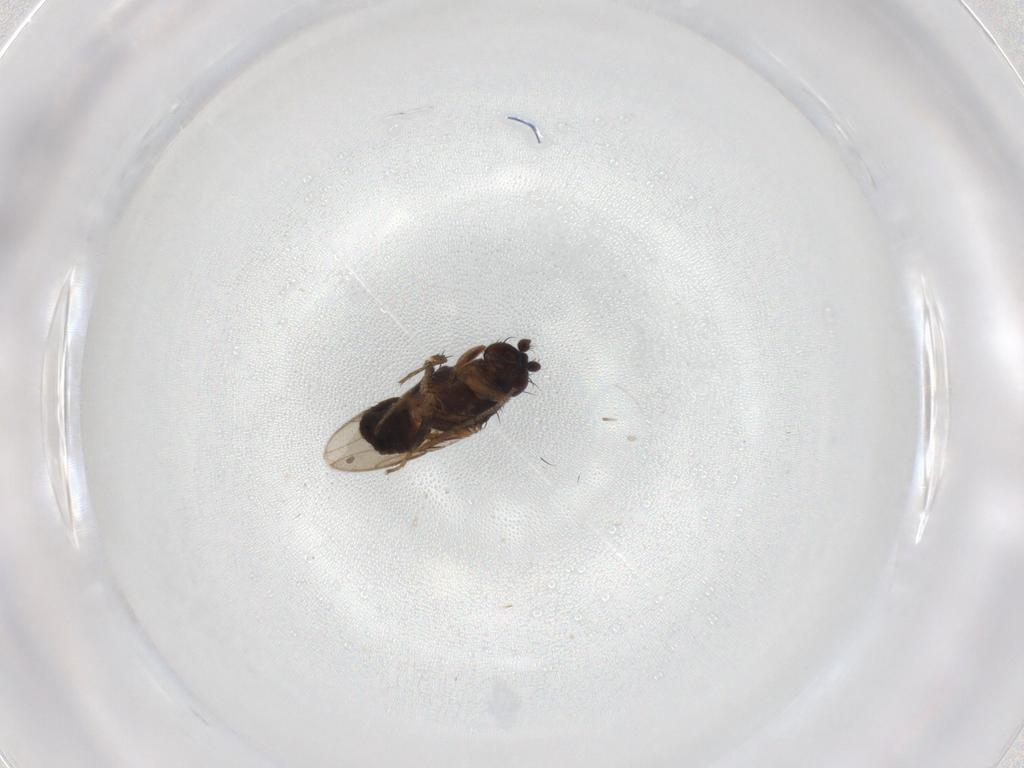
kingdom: Animalia
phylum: Arthropoda
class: Insecta
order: Diptera
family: Sphaeroceridae
